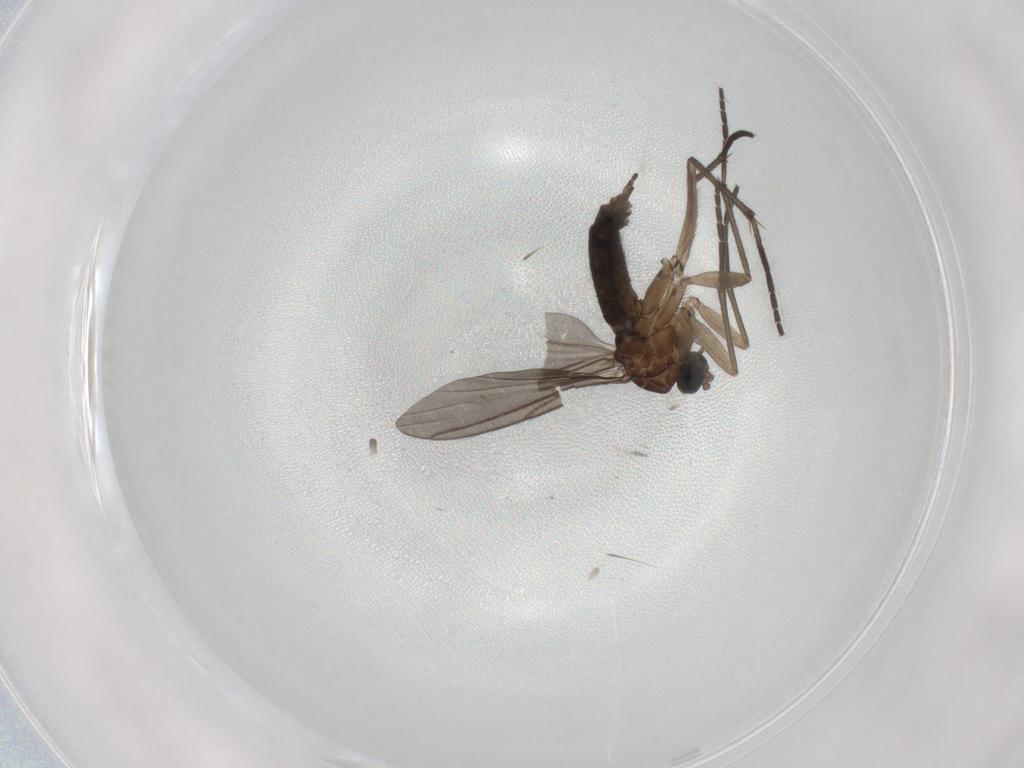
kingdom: Animalia
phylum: Arthropoda
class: Insecta
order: Diptera
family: Psychodidae
